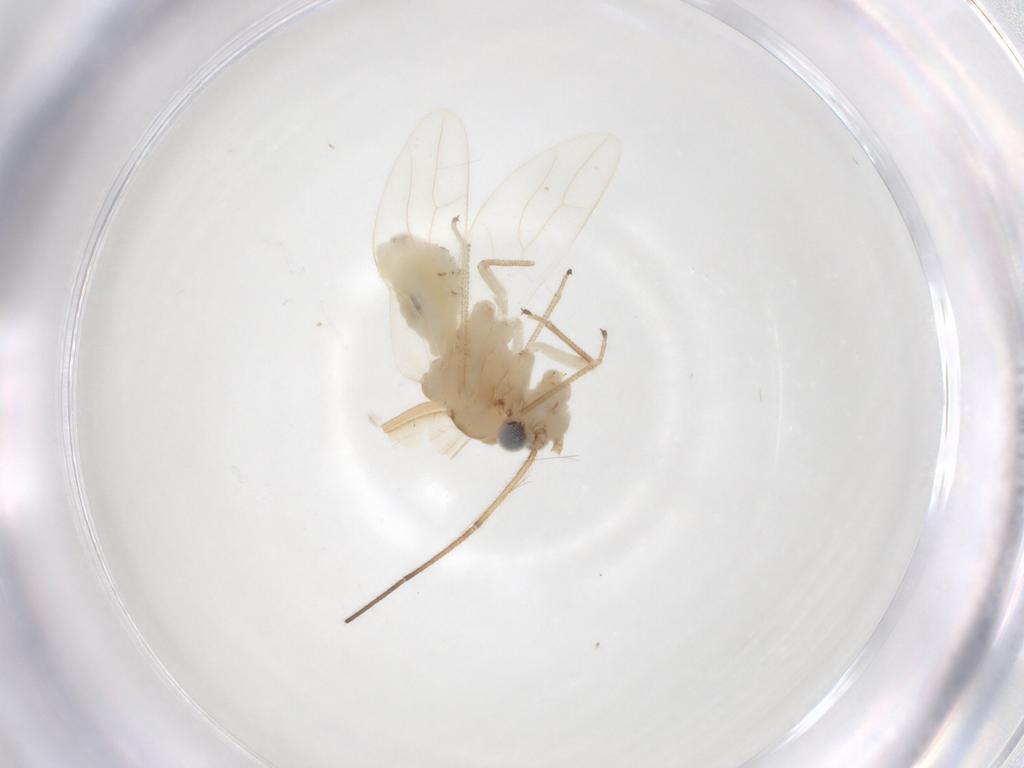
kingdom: Animalia
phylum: Arthropoda
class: Insecta
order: Psocodea
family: Caeciliusidae
